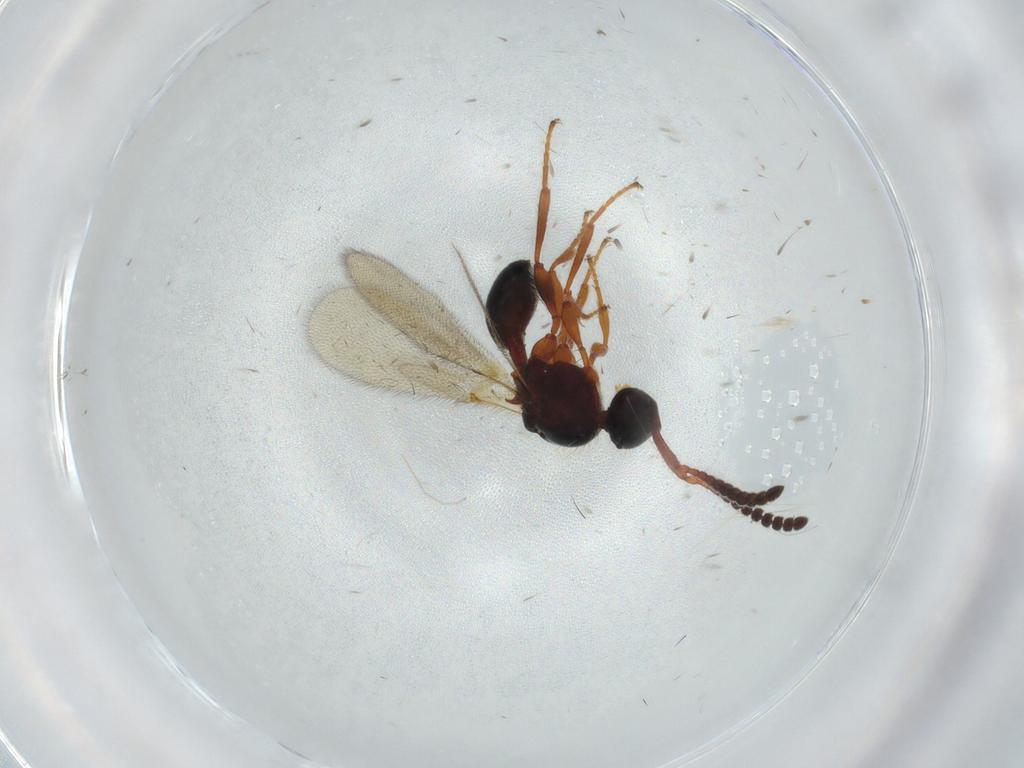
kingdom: Animalia
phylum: Arthropoda
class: Insecta
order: Hymenoptera
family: Diapriidae
